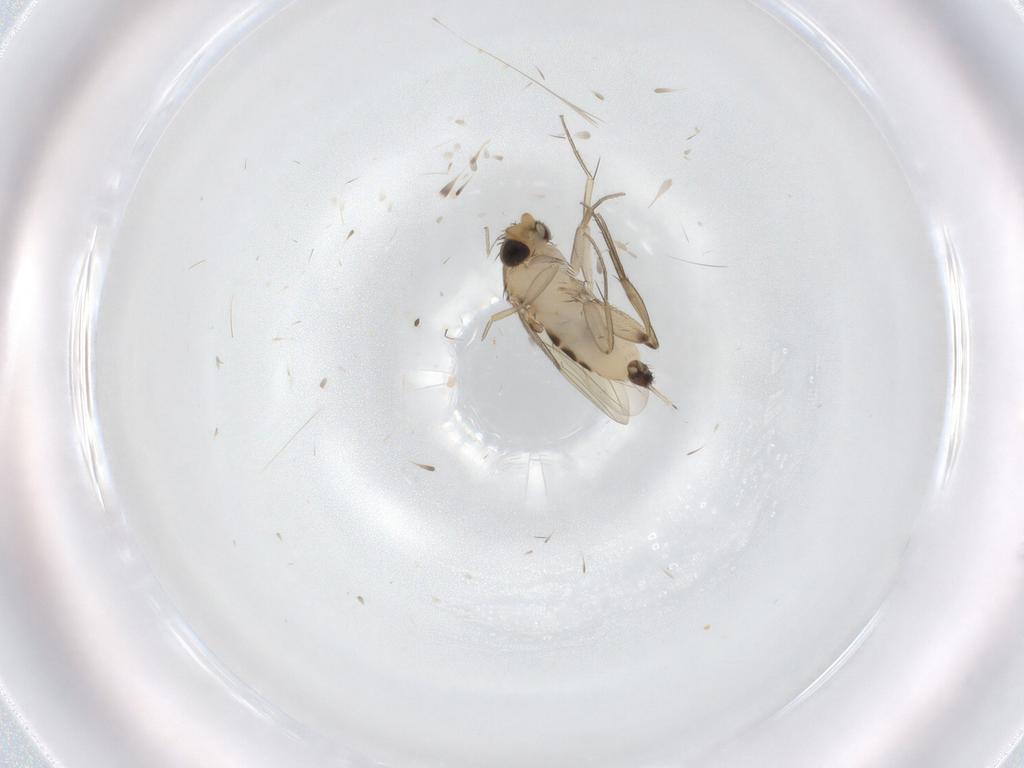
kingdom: Animalia
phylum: Arthropoda
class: Insecta
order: Diptera
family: Phoridae
